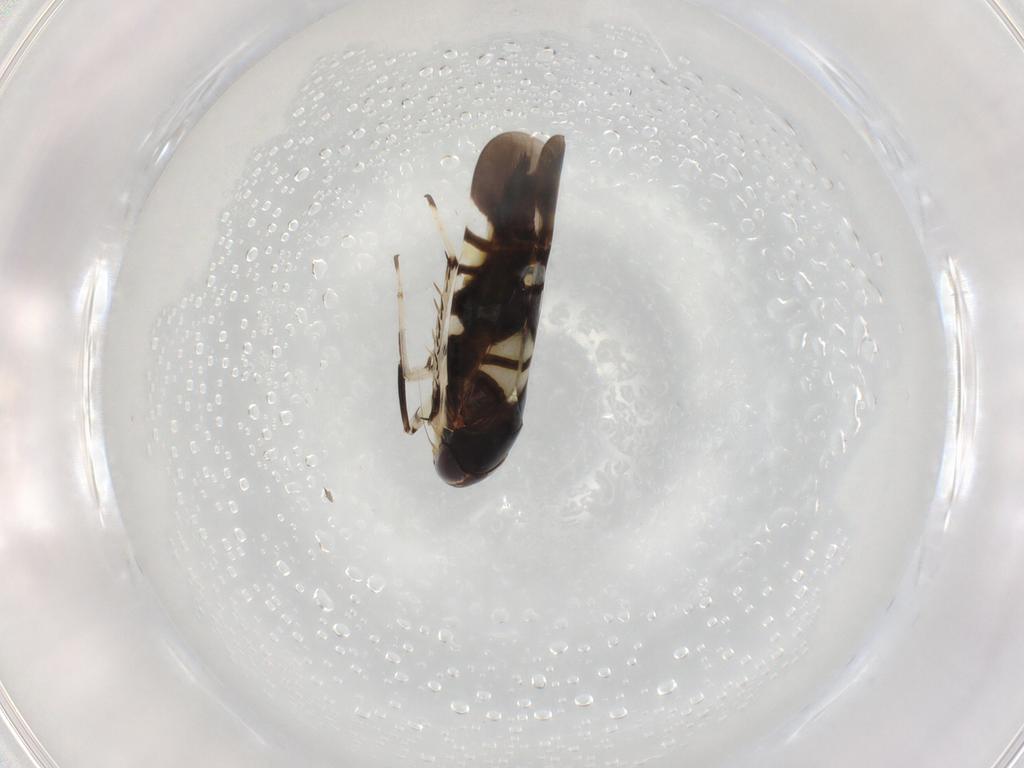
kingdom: Animalia
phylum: Arthropoda
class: Insecta
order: Hemiptera
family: Cicadellidae
